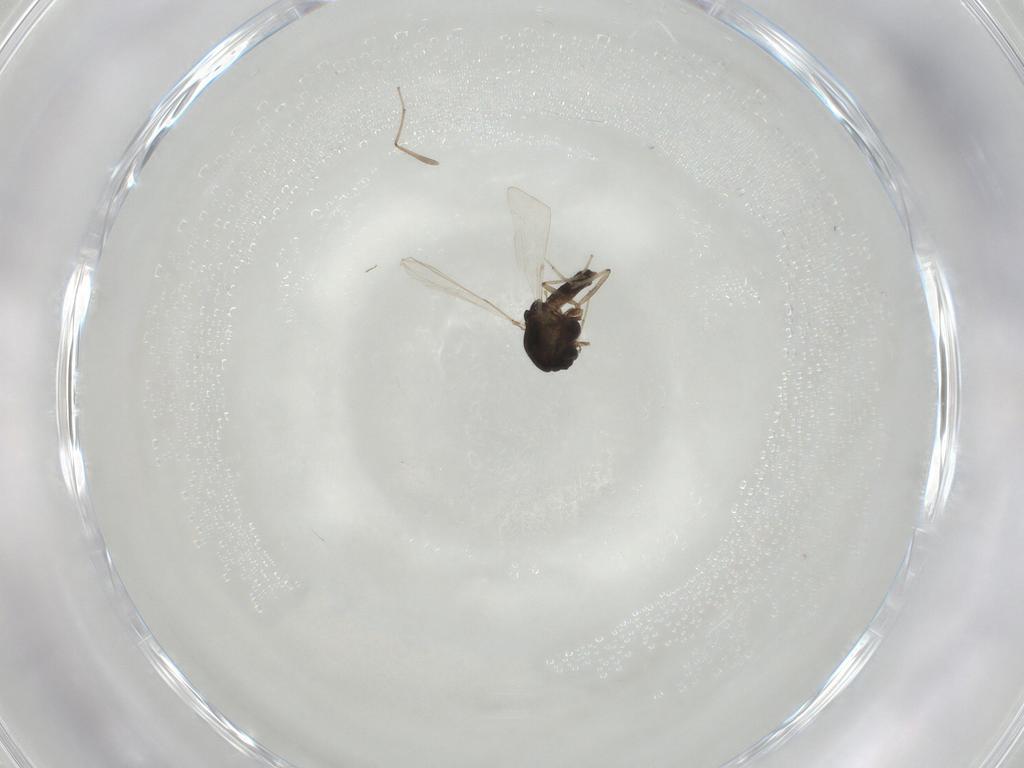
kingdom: Animalia
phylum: Arthropoda
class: Insecta
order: Diptera
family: Chironomidae
